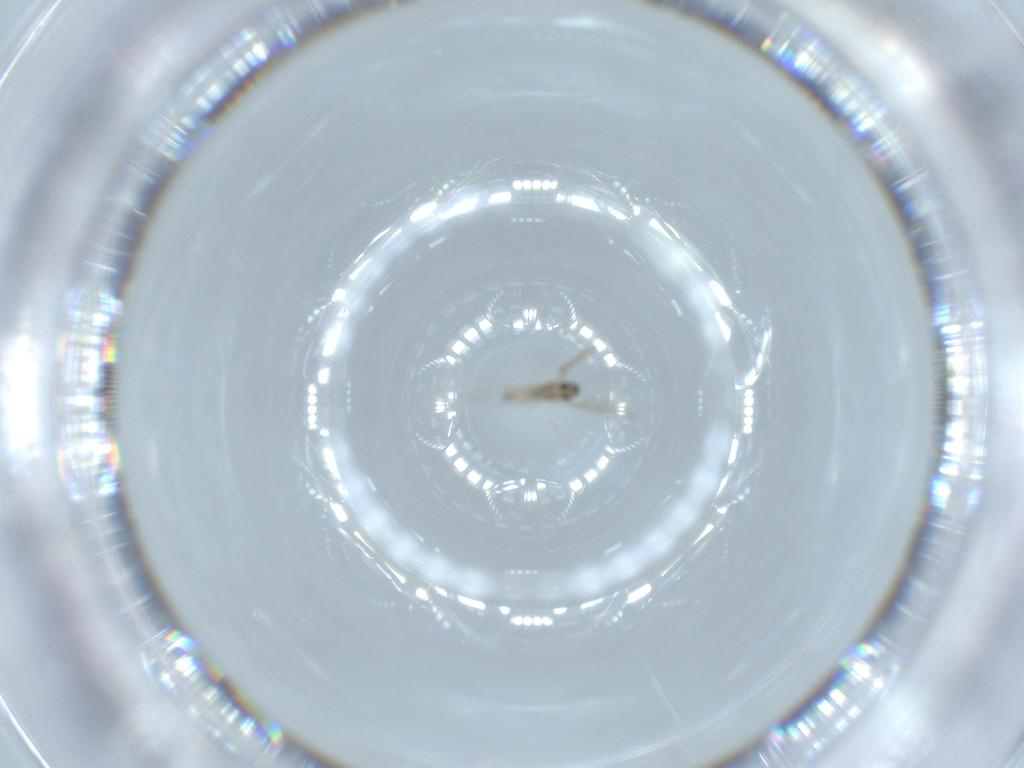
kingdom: Animalia
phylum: Arthropoda
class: Insecta
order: Diptera
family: Cecidomyiidae
